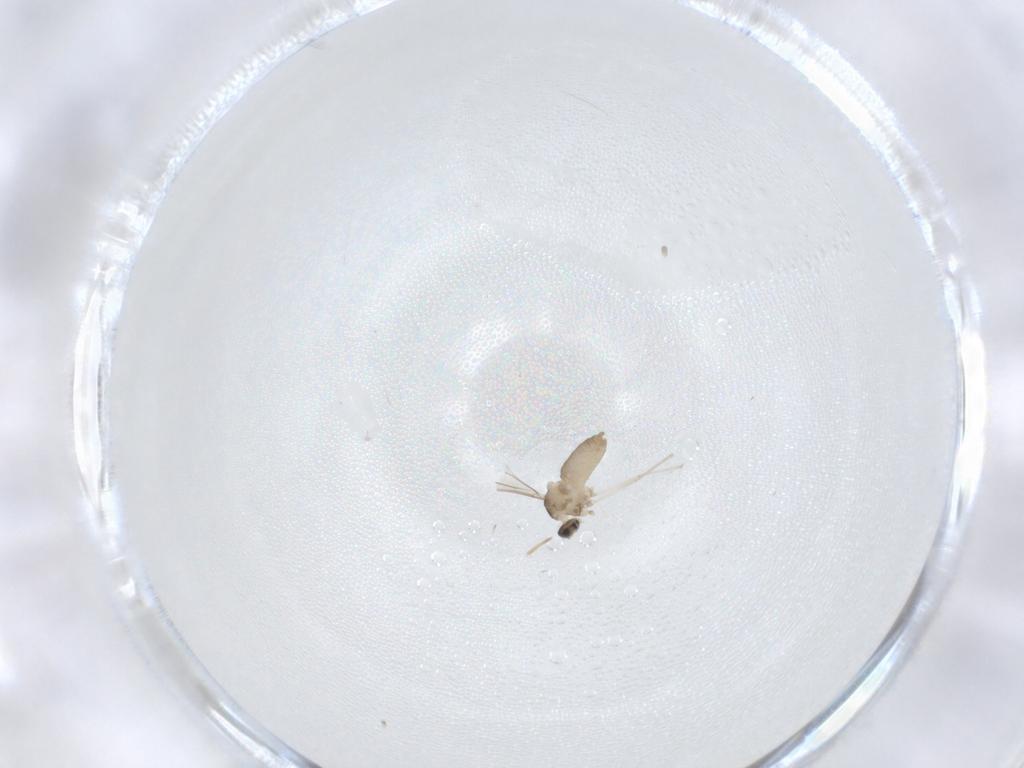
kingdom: Animalia
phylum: Arthropoda
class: Insecta
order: Diptera
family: Cecidomyiidae
